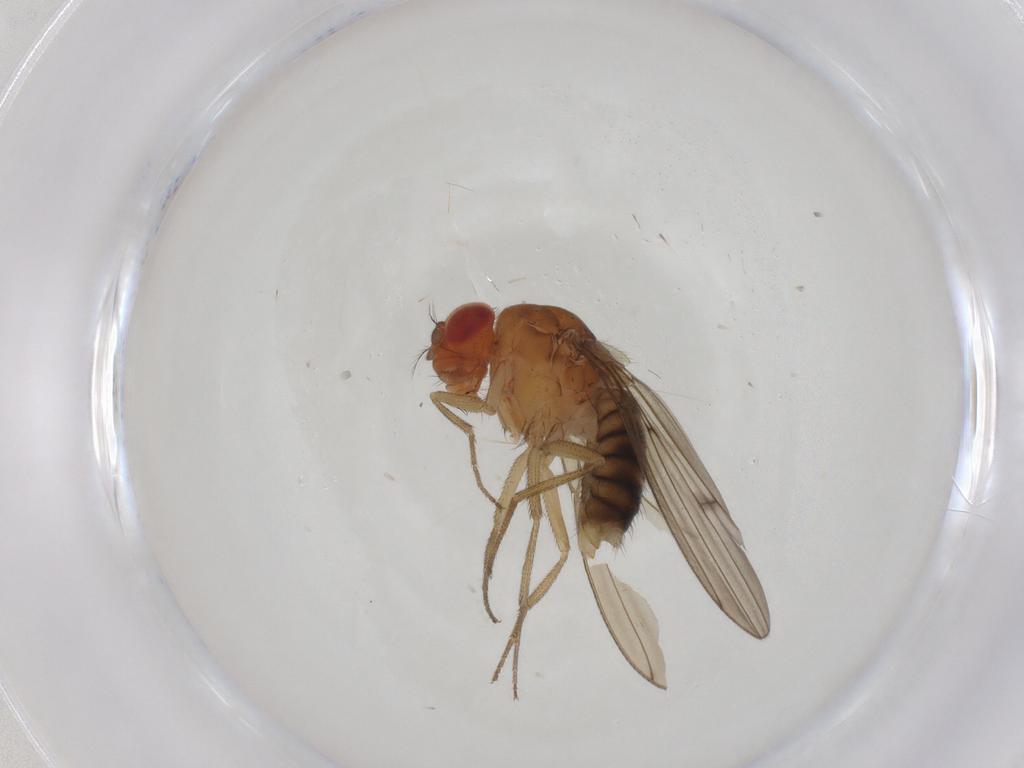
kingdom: Animalia
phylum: Arthropoda
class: Insecta
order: Diptera
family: Drosophilidae
